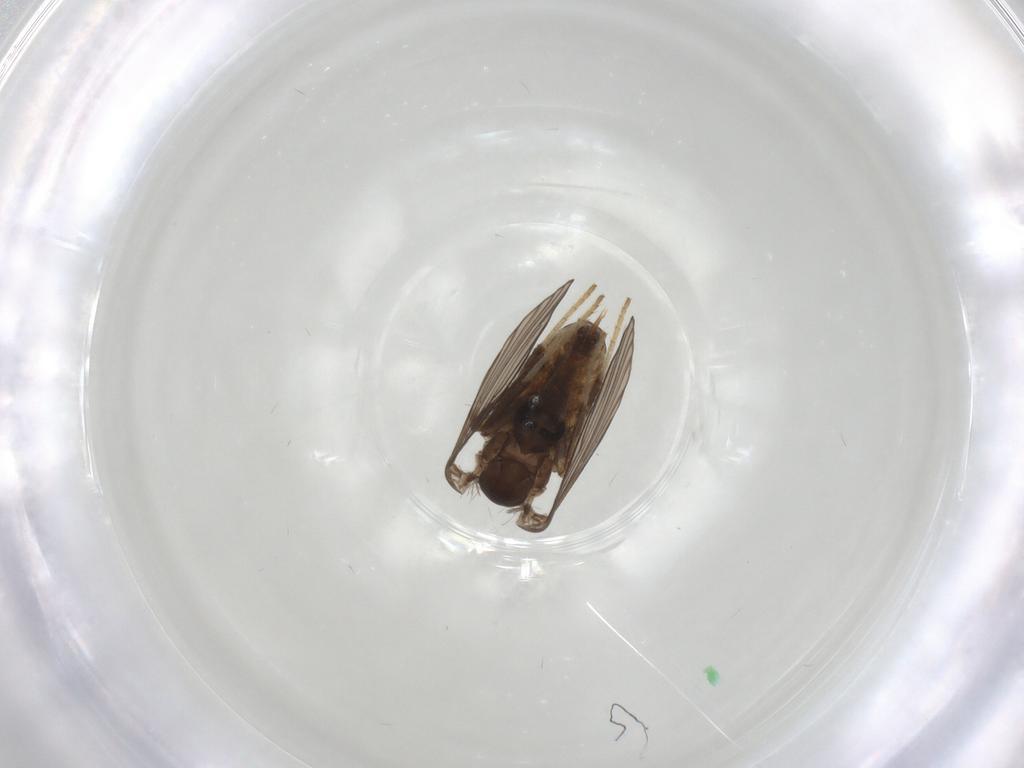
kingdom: Animalia
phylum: Arthropoda
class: Insecta
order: Diptera
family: Psychodidae
